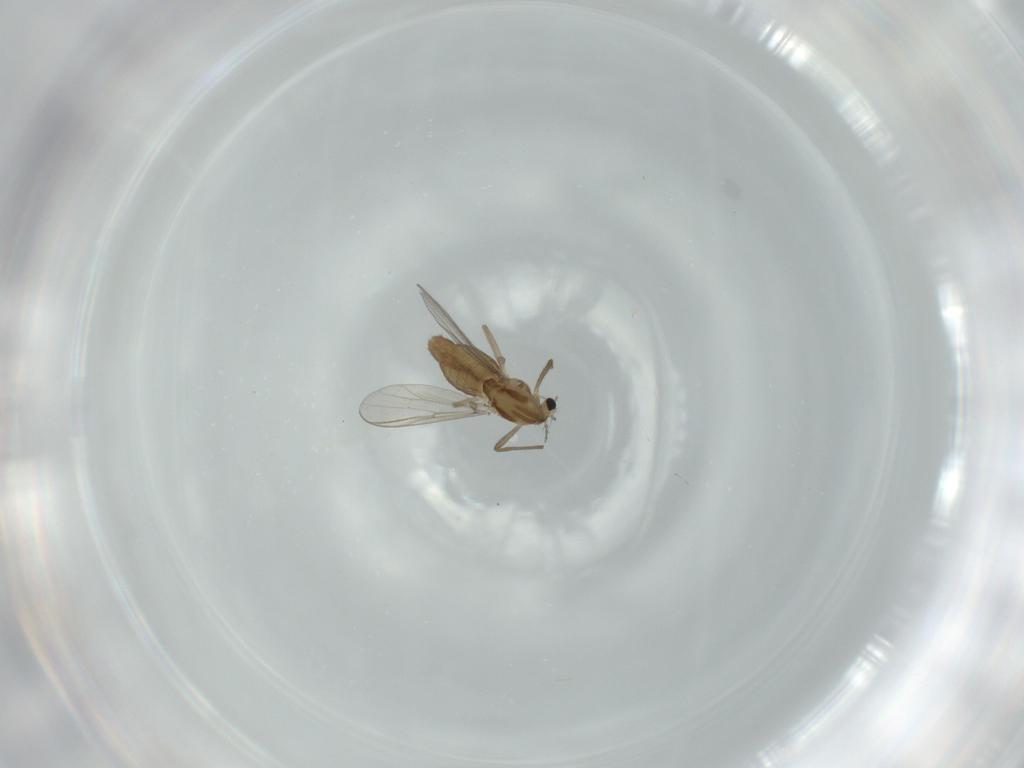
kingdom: Animalia
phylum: Arthropoda
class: Insecta
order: Diptera
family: Chironomidae
